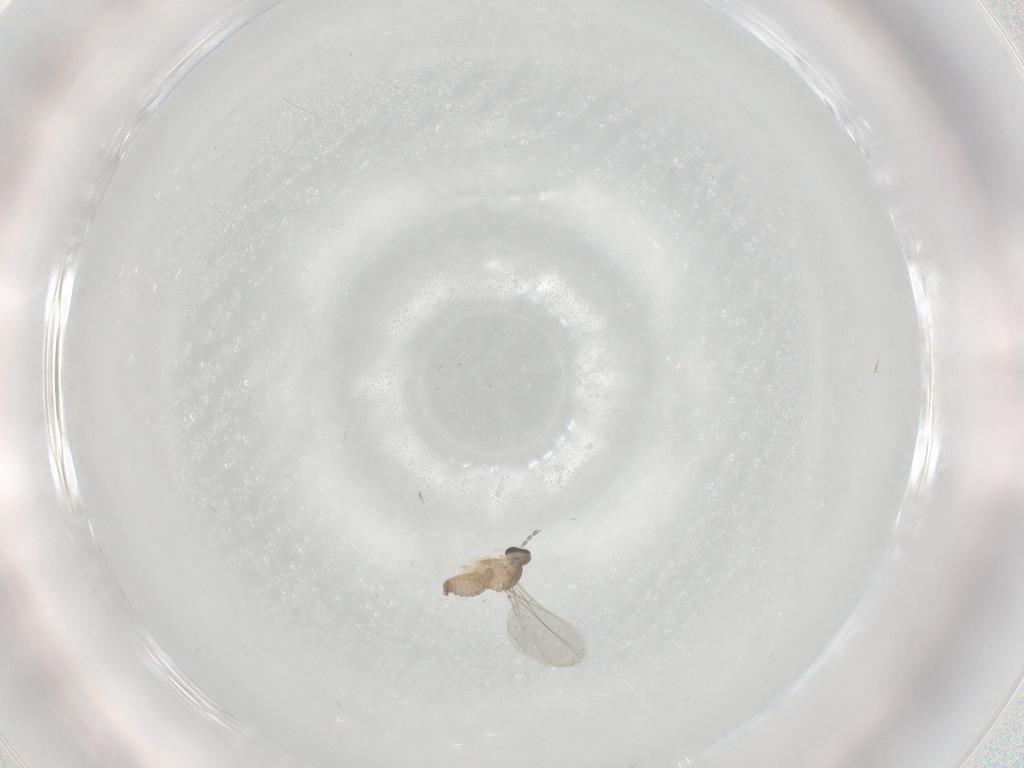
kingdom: Animalia
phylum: Arthropoda
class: Insecta
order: Diptera
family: Cecidomyiidae
